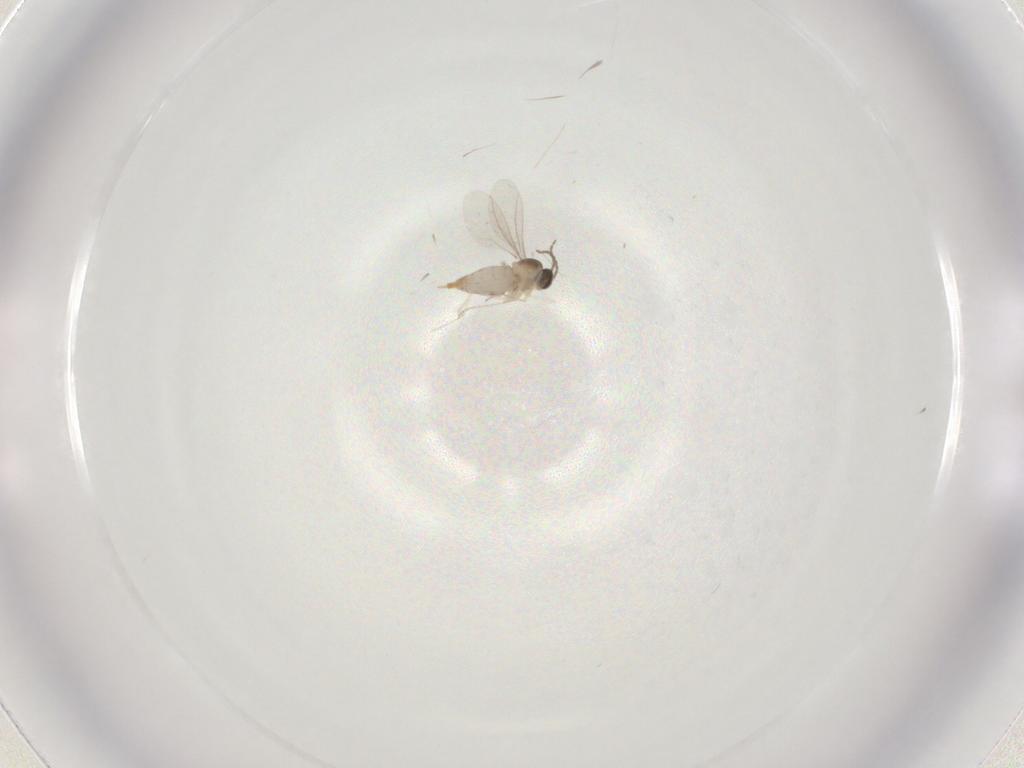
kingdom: Animalia
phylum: Arthropoda
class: Insecta
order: Diptera
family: Cecidomyiidae
